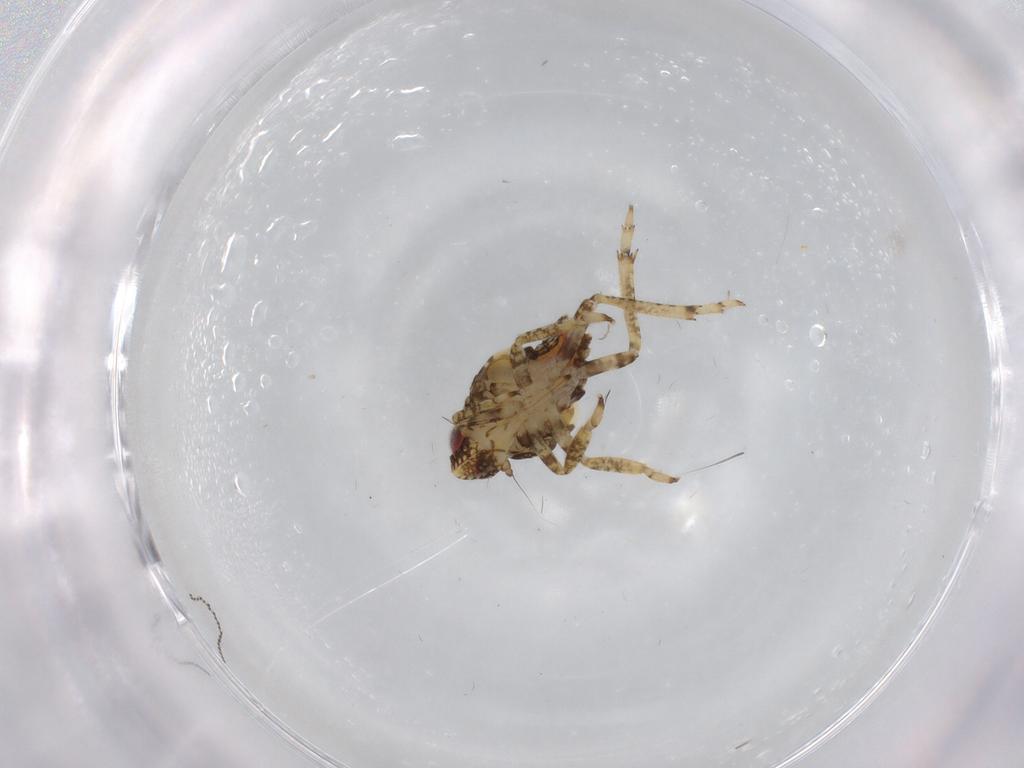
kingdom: Animalia
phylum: Arthropoda
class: Insecta
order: Hemiptera
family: Issidae
